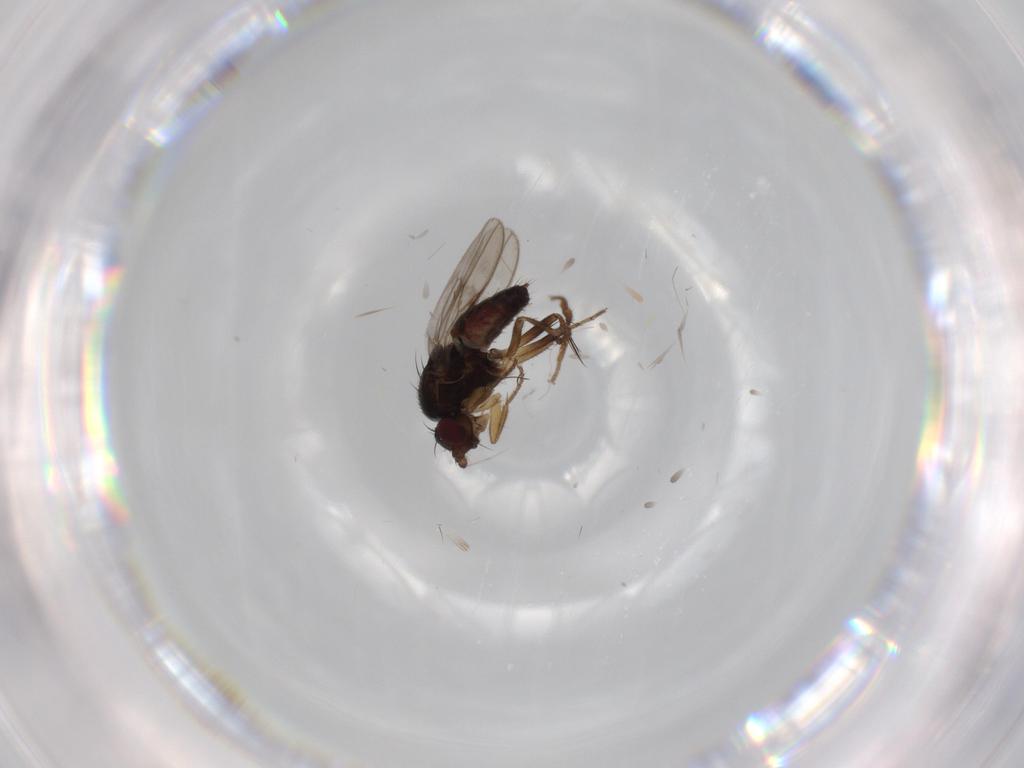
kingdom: Animalia
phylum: Arthropoda
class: Insecta
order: Diptera
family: Sphaeroceridae
